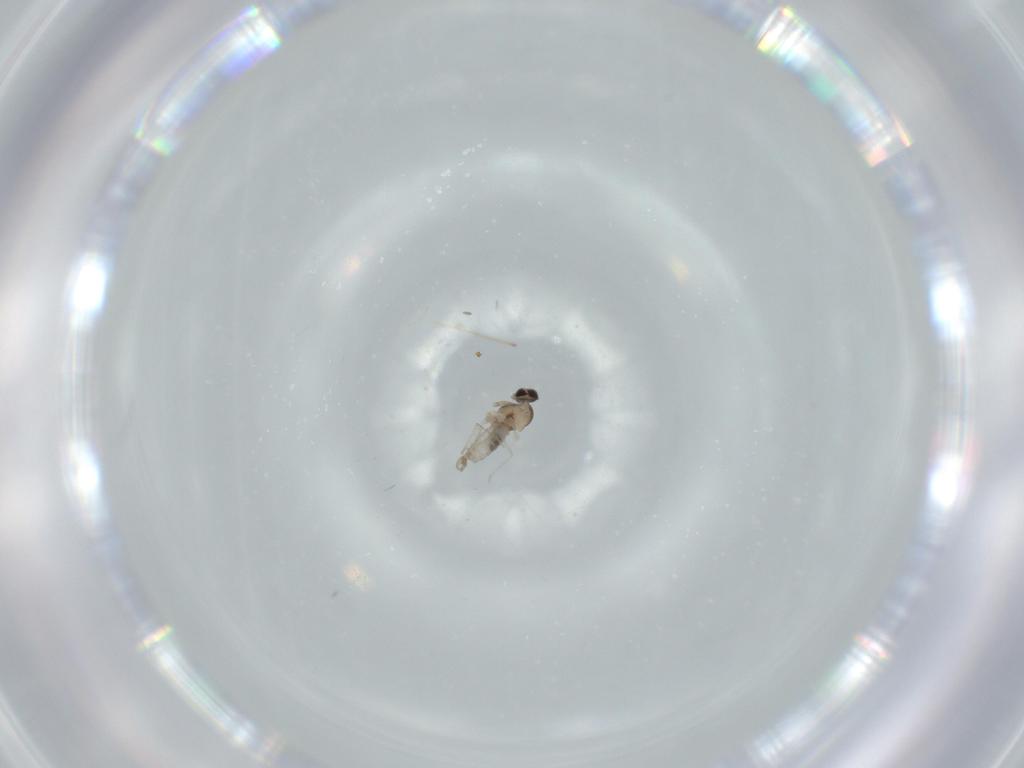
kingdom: Animalia
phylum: Arthropoda
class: Insecta
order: Diptera
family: Cecidomyiidae
